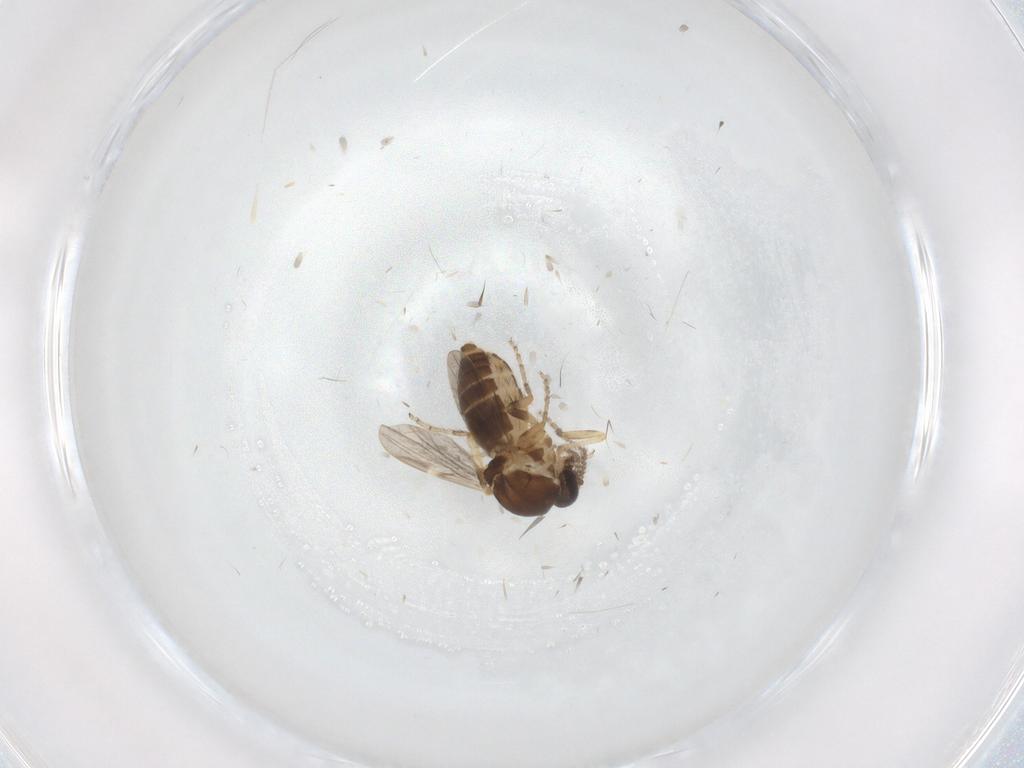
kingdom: Animalia
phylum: Arthropoda
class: Insecta
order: Diptera
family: Ceratopogonidae
